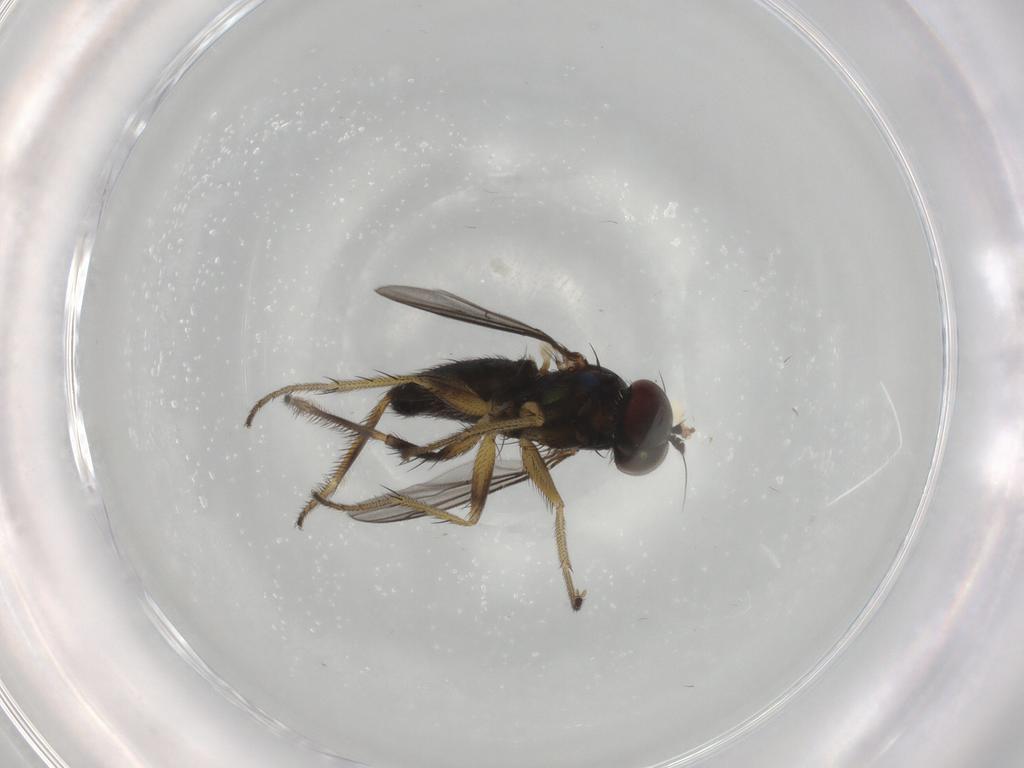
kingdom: Animalia
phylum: Arthropoda
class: Insecta
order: Diptera
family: Dolichopodidae
